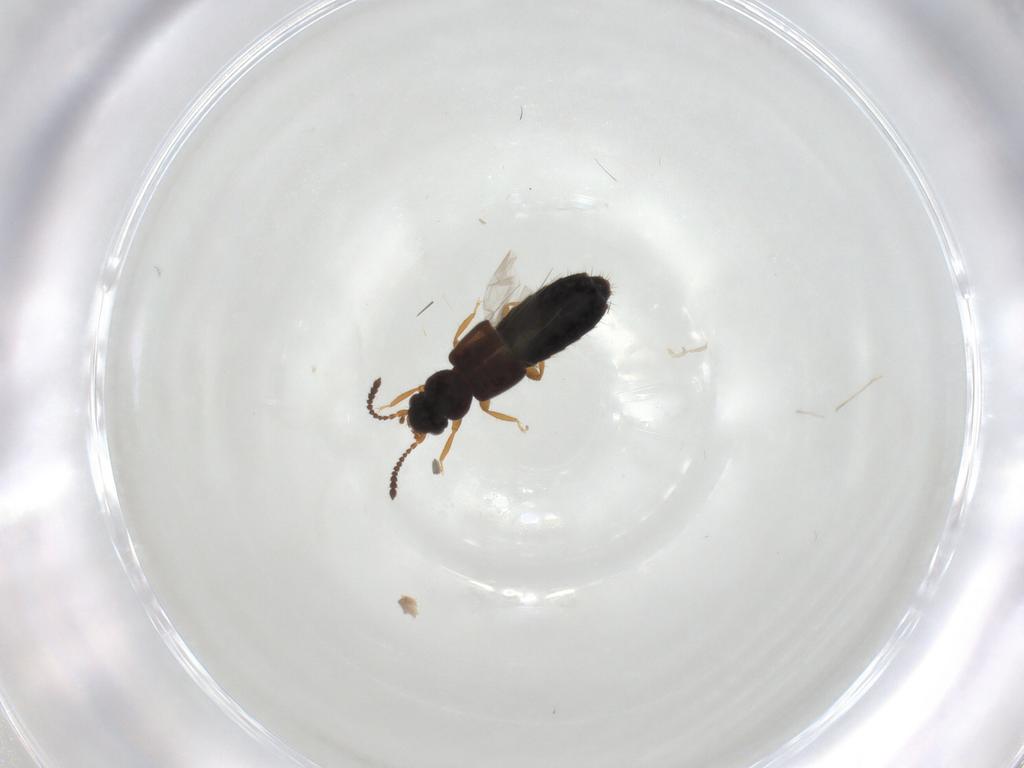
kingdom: Animalia
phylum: Arthropoda
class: Insecta
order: Coleoptera
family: Staphylinidae
